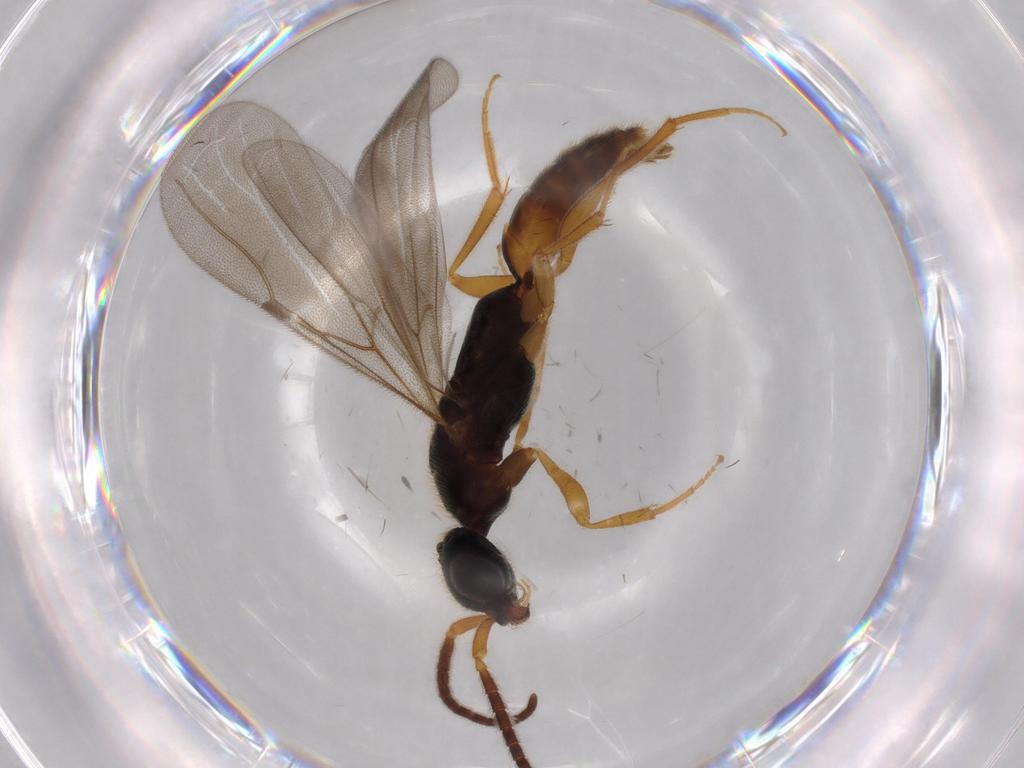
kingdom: Animalia
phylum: Arthropoda
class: Insecta
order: Hymenoptera
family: Bethylidae
